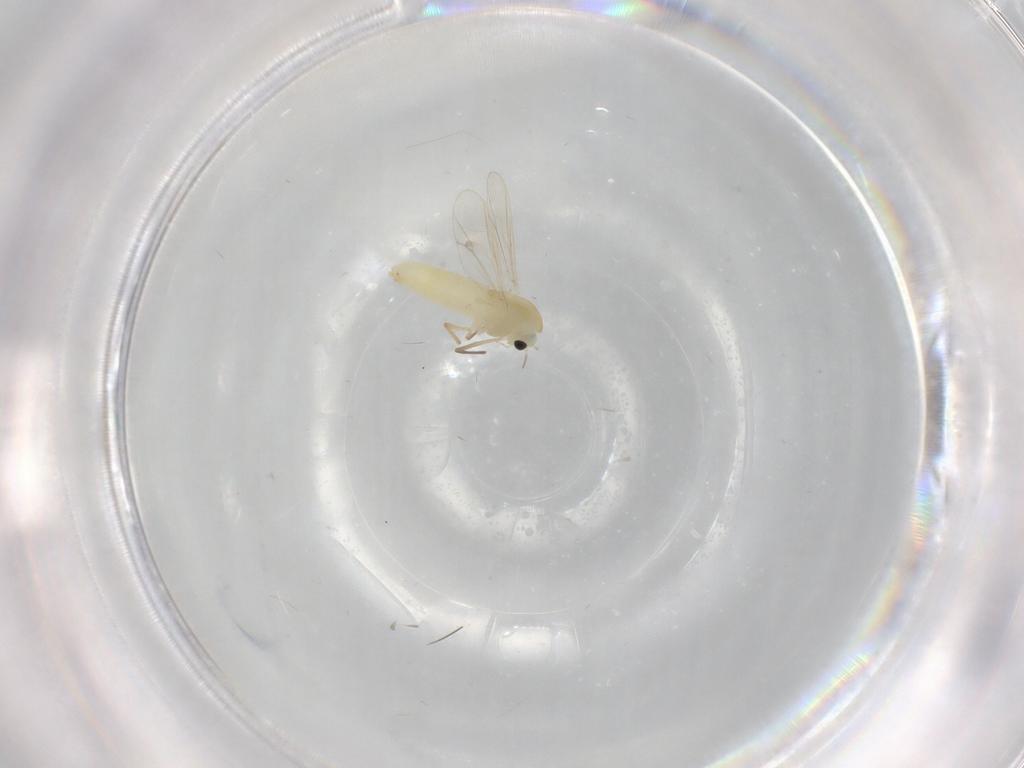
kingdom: Animalia
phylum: Arthropoda
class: Insecta
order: Diptera
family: Chironomidae
